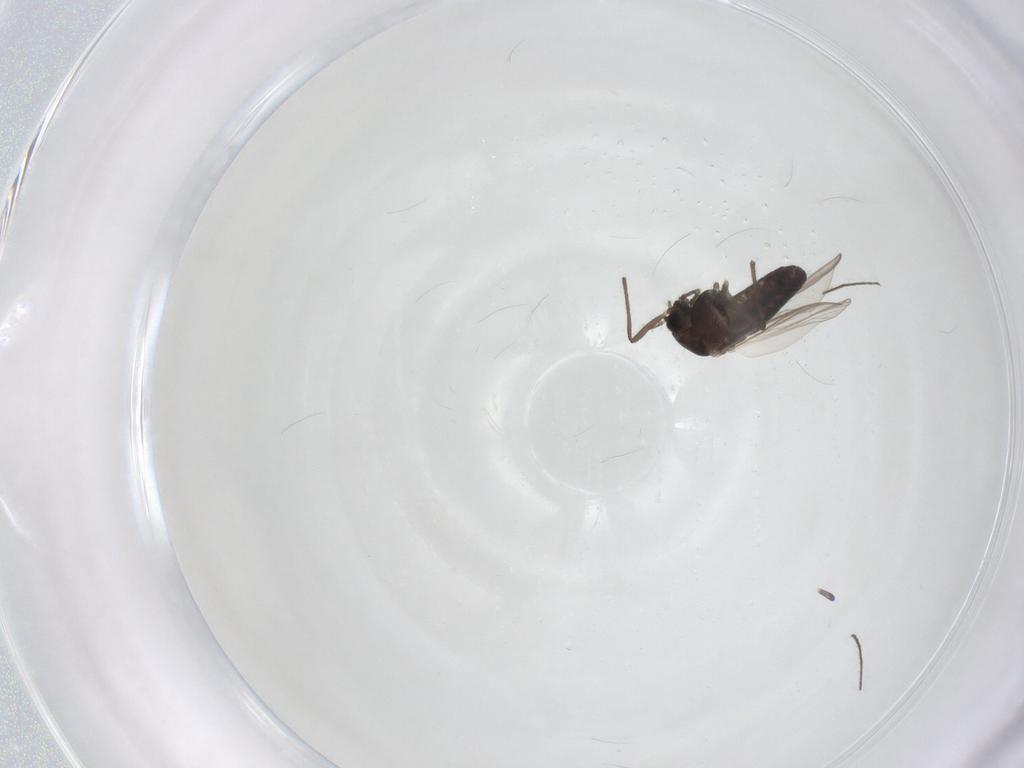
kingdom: Animalia
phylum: Arthropoda
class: Insecta
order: Diptera
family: Chironomidae
